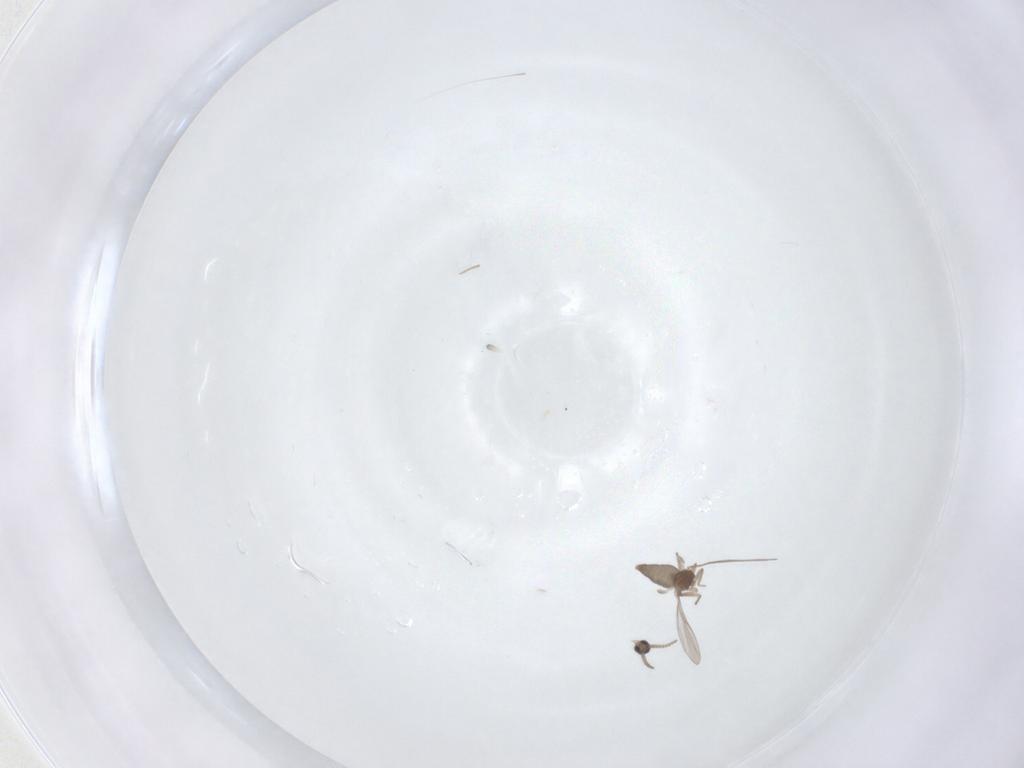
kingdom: Animalia
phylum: Arthropoda
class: Insecta
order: Diptera
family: Cecidomyiidae
